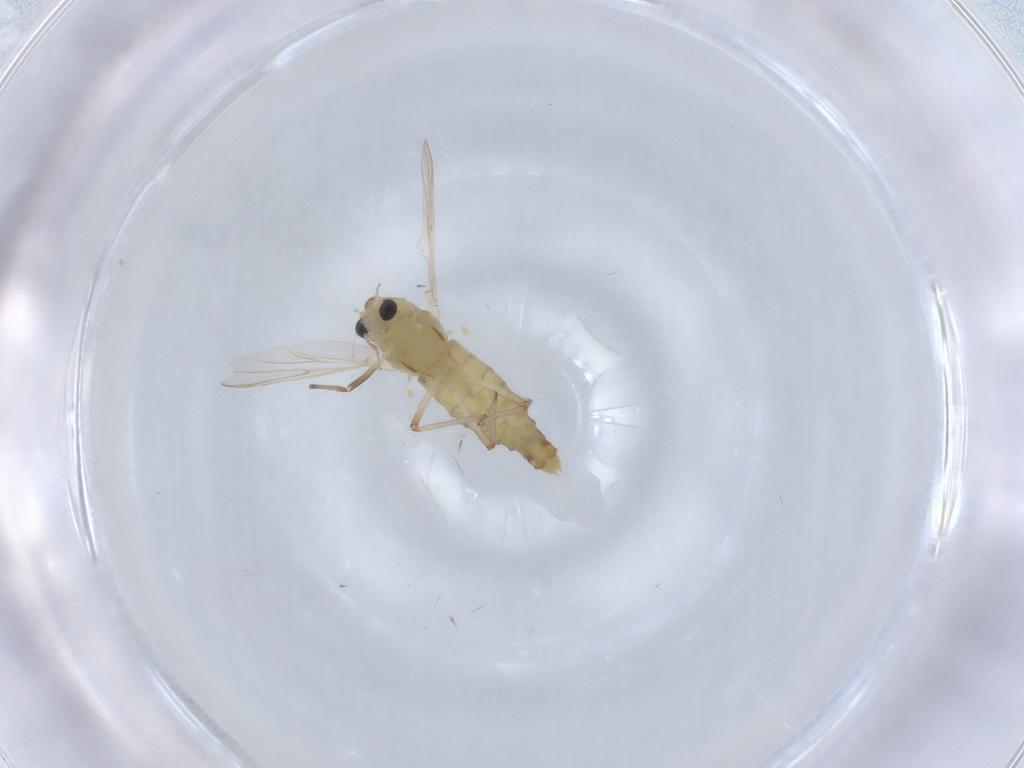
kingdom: Animalia
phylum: Arthropoda
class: Insecta
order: Diptera
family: Chironomidae
